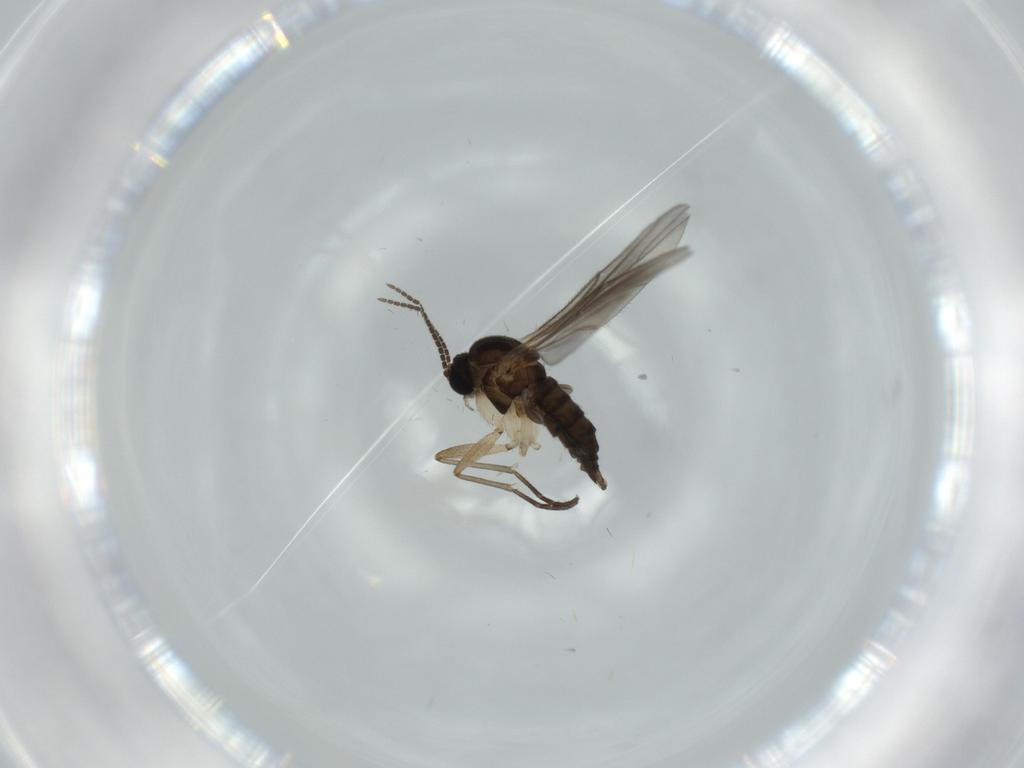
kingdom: Animalia
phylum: Arthropoda
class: Insecta
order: Diptera
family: Sciaridae
